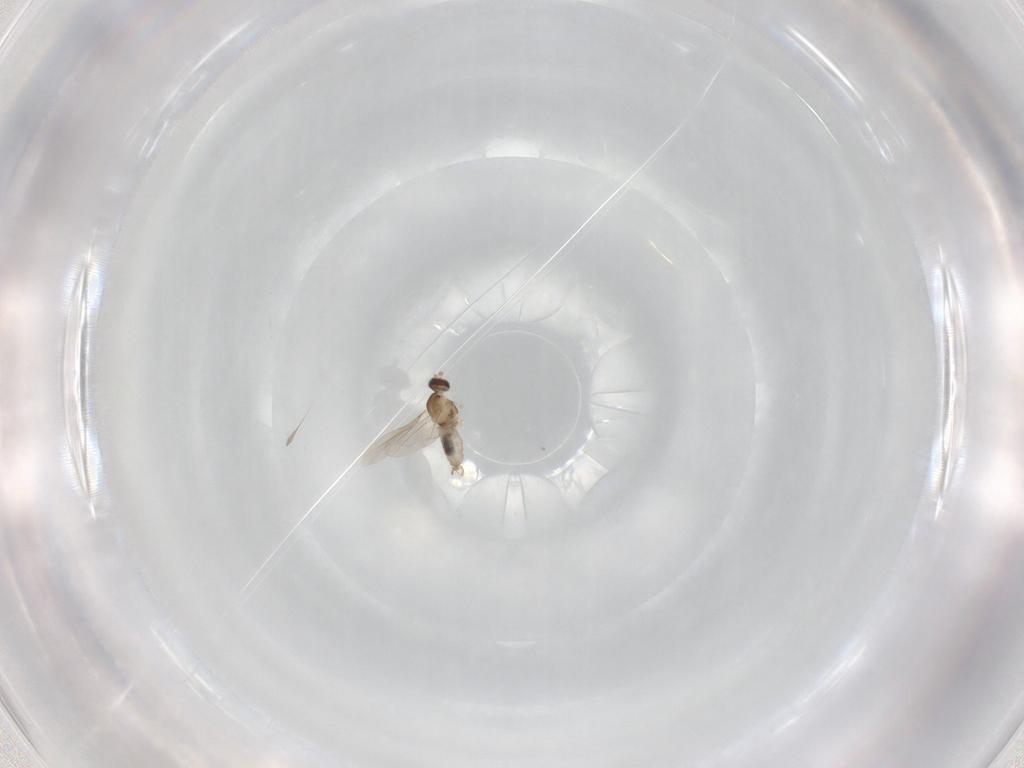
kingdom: Animalia
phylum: Arthropoda
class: Insecta
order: Diptera
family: Cecidomyiidae
